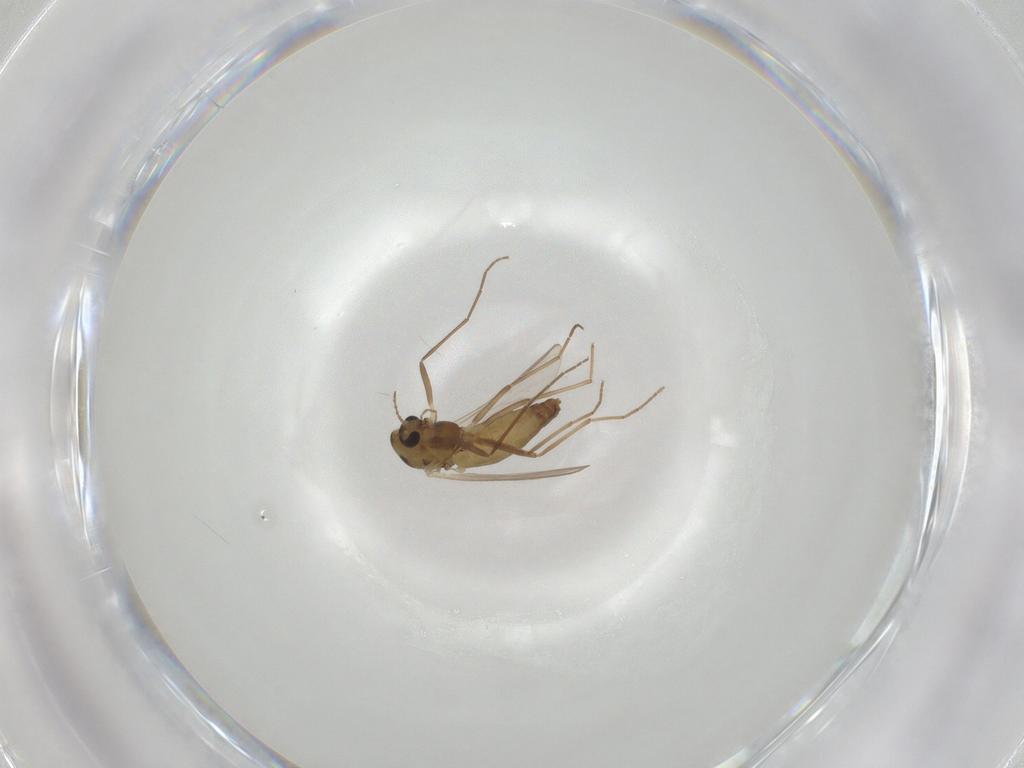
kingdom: Animalia
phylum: Arthropoda
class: Insecta
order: Diptera
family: Chironomidae
